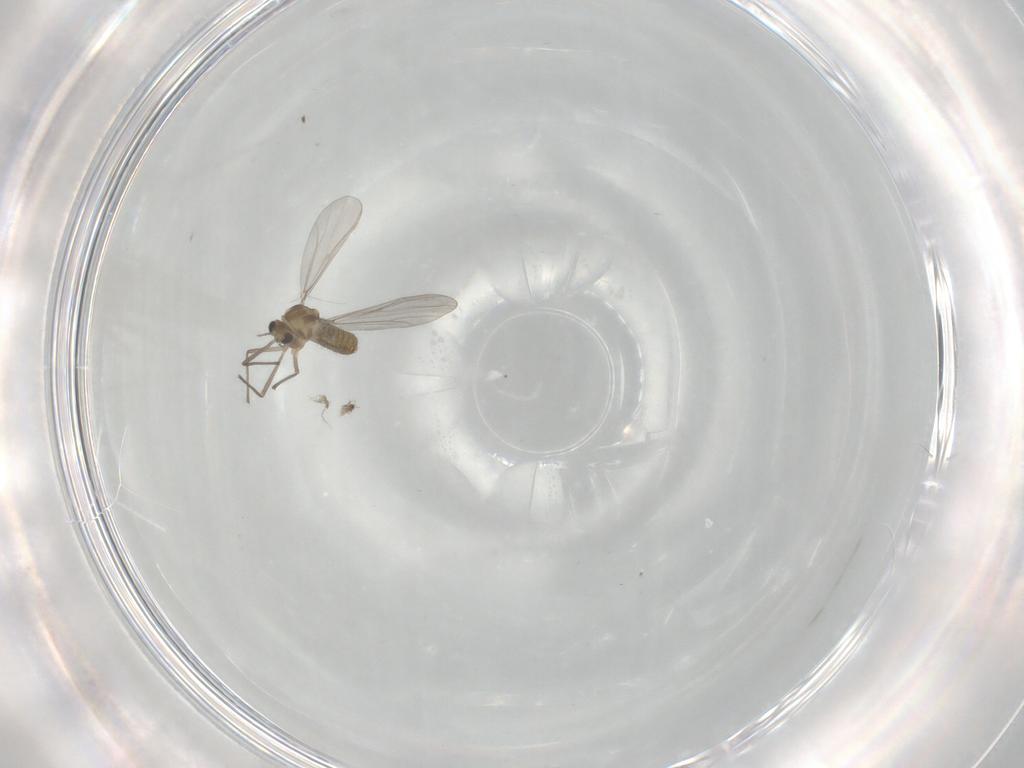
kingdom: Animalia
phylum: Arthropoda
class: Insecta
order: Diptera
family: Chironomidae
